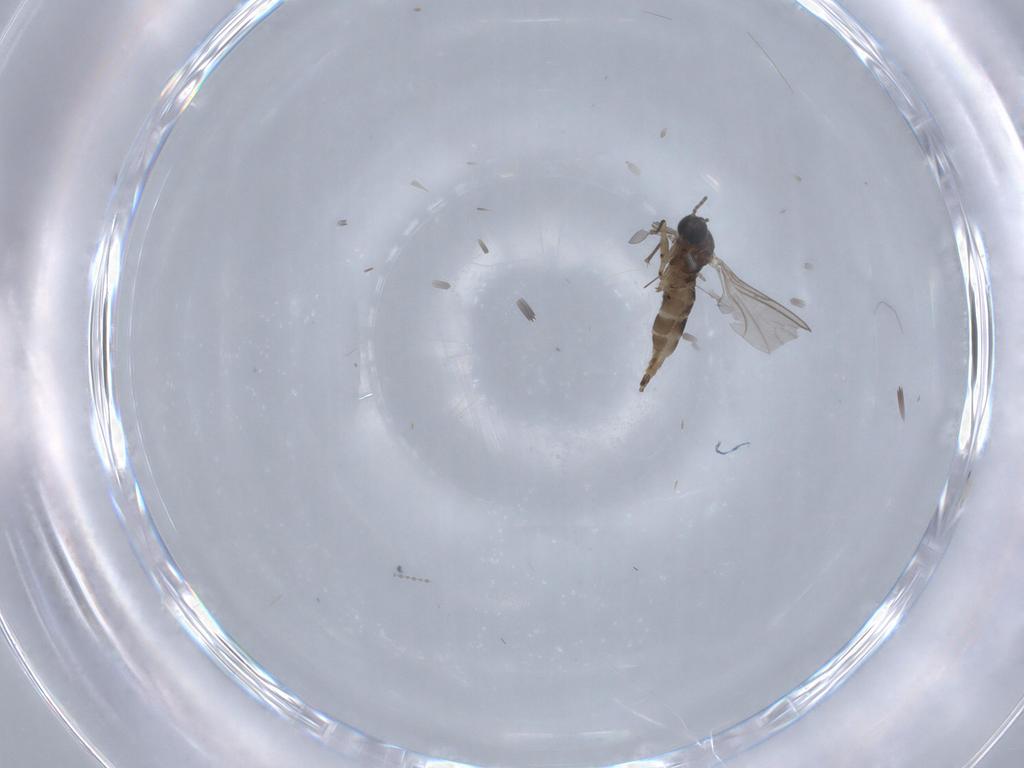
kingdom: Animalia
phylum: Arthropoda
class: Insecta
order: Diptera
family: Sciaridae
